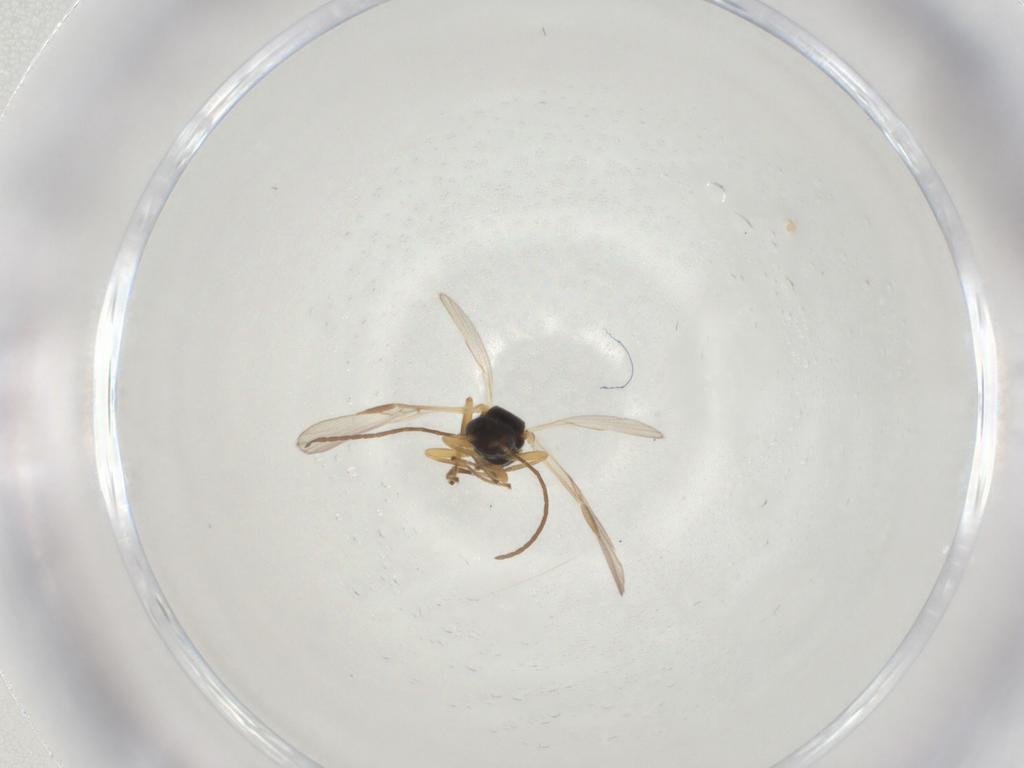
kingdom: Animalia
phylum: Arthropoda
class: Insecta
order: Hymenoptera
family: Braconidae
